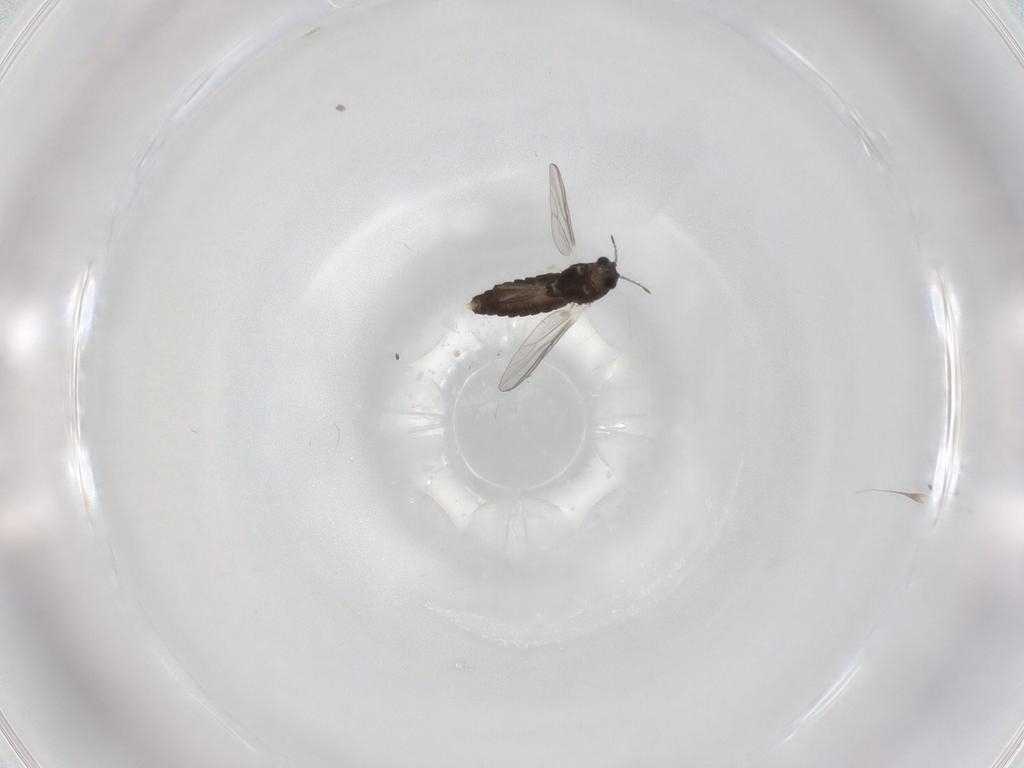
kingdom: Animalia
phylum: Arthropoda
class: Insecta
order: Diptera
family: Chironomidae
